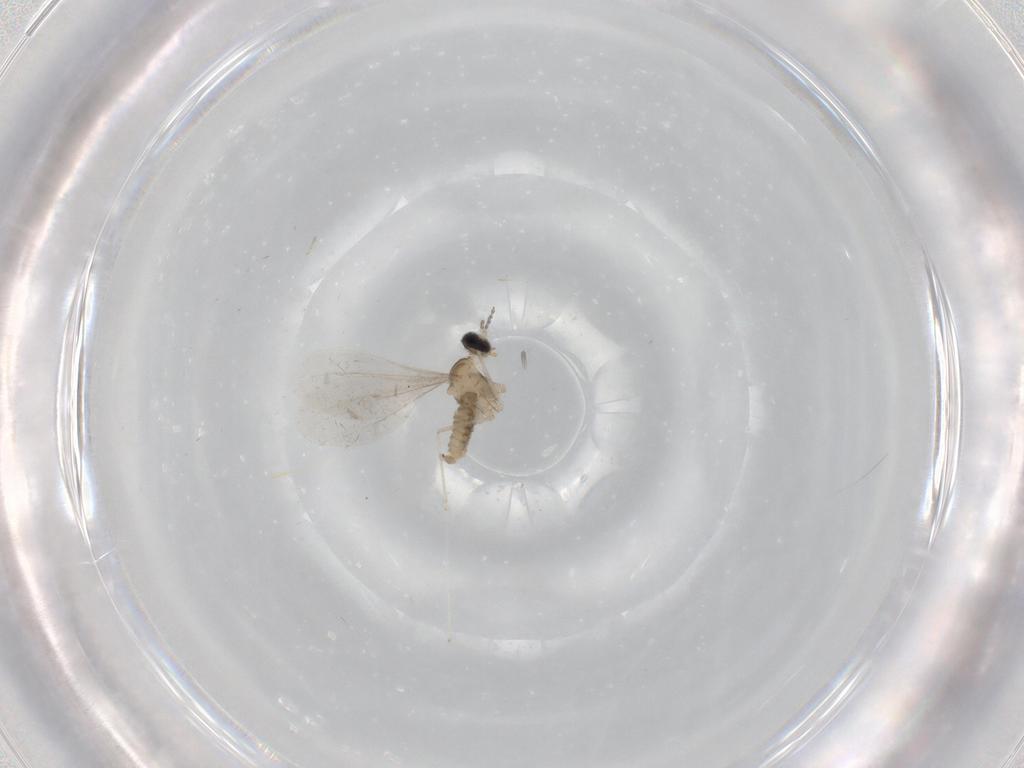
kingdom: Animalia
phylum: Arthropoda
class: Insecta
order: Diptera
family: Cecidomyiidae
